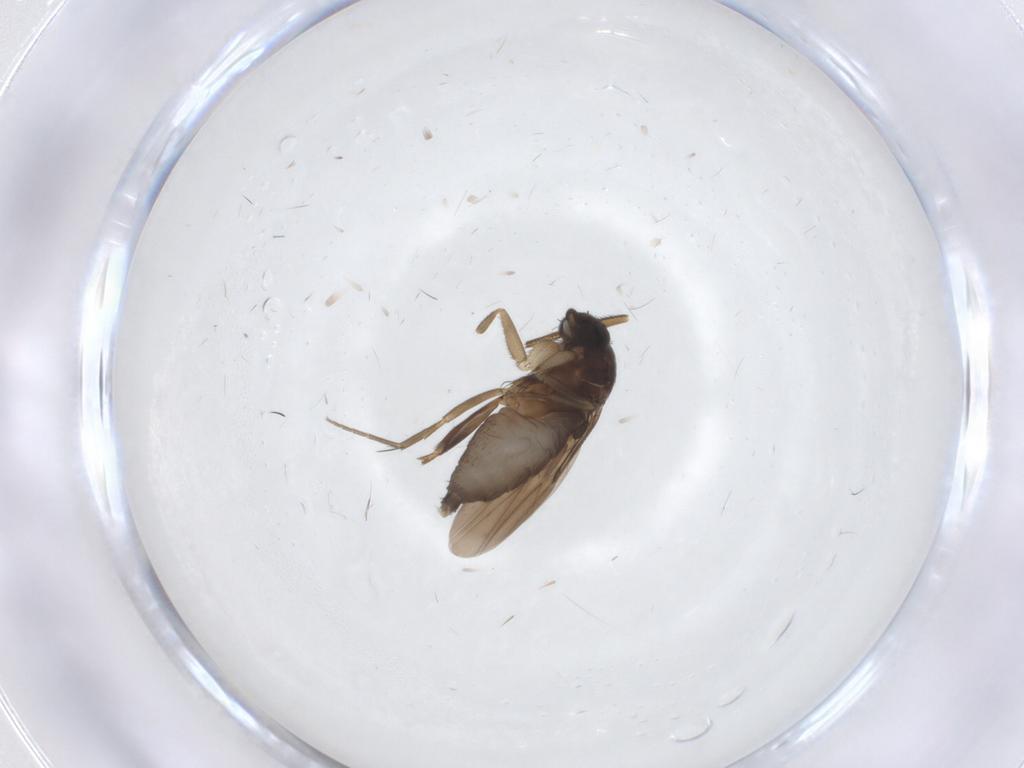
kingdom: Animalia
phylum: Arthropoda
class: Insecta
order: Diptera
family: Phoridae
